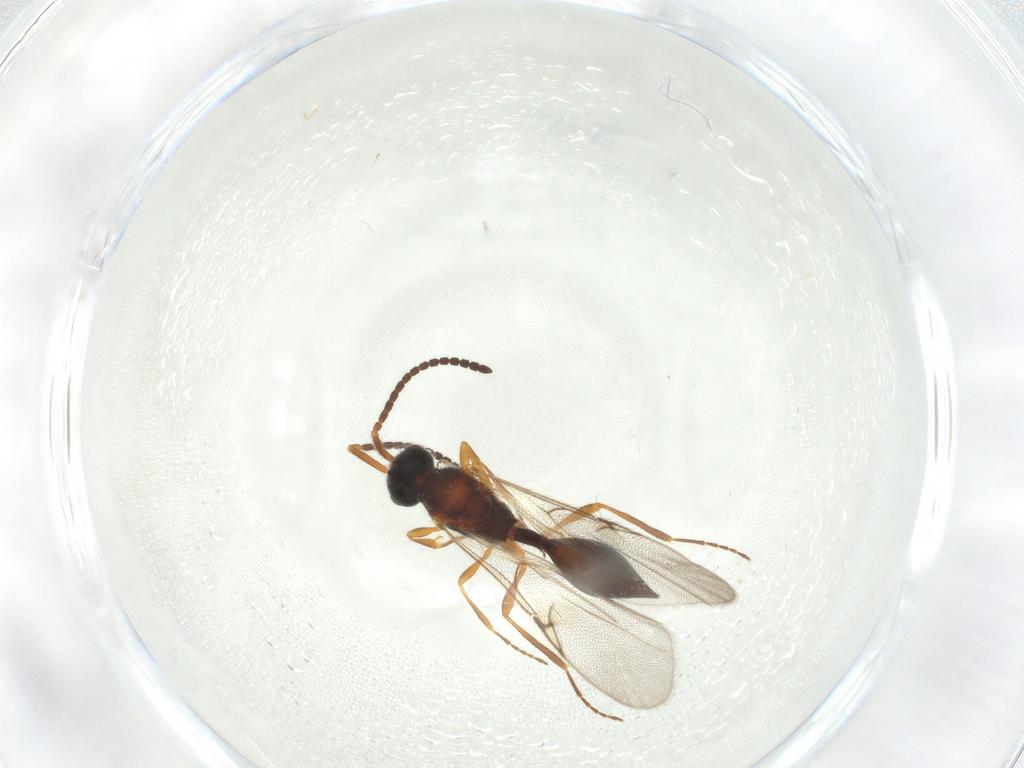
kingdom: Animalia
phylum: Arthropoda
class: Insecta
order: Hymenoptera
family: Diapriidae
